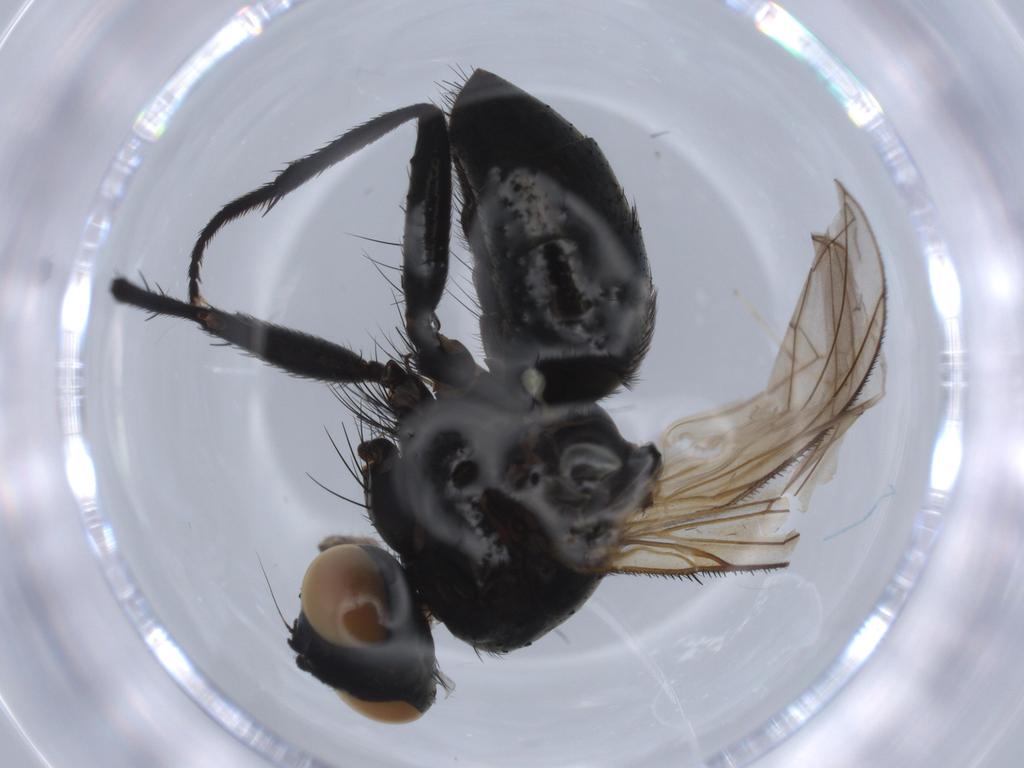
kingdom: Animalia
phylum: Arthropoda
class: Insecta
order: Diptera
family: Muscidae
